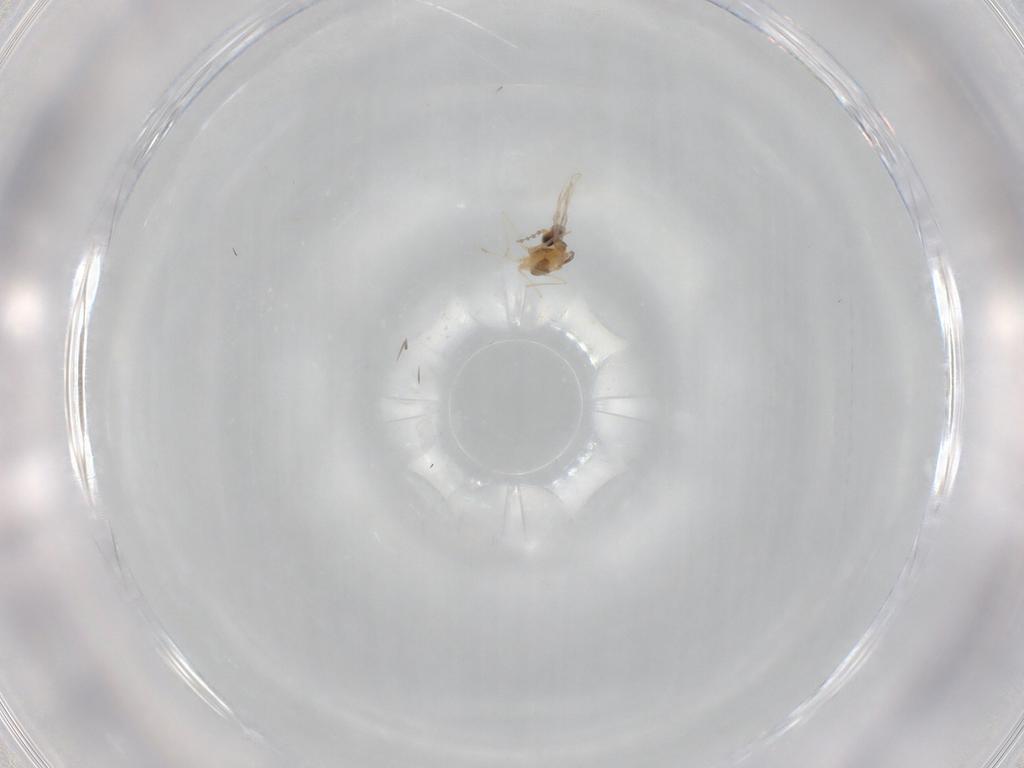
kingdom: Animalia
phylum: Arthropoda
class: Insecta
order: Diptera
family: Cecidomyiidae
